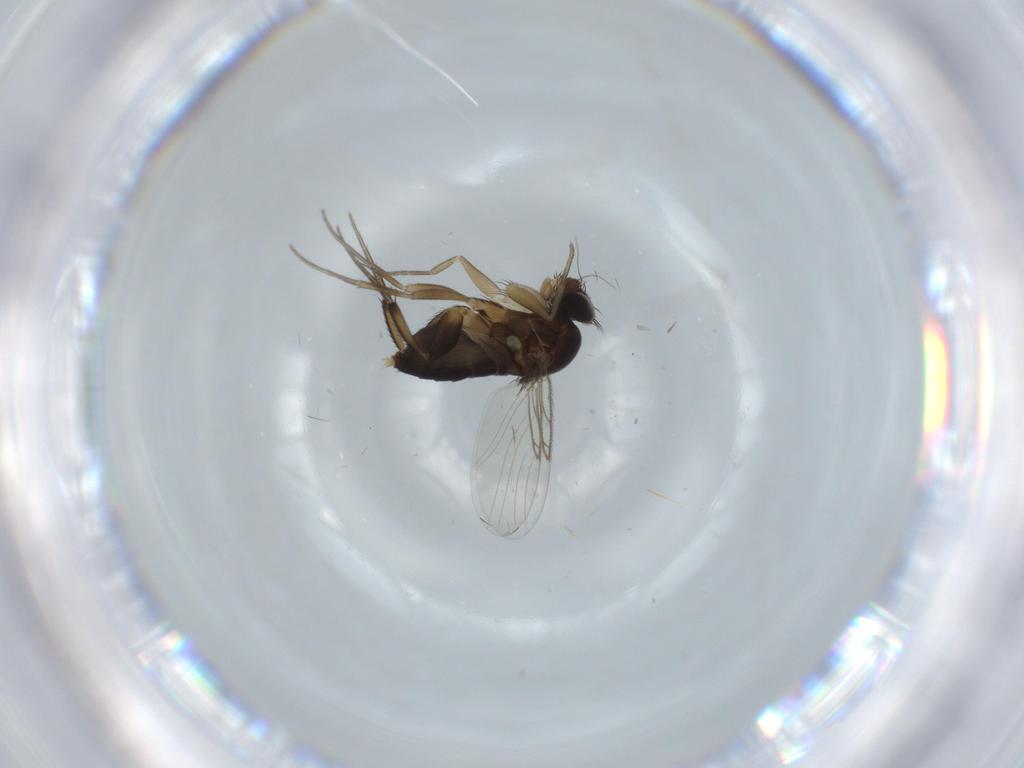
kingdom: Animalia
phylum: Arthropoda
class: Insecta
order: Diptera
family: Phoridae
